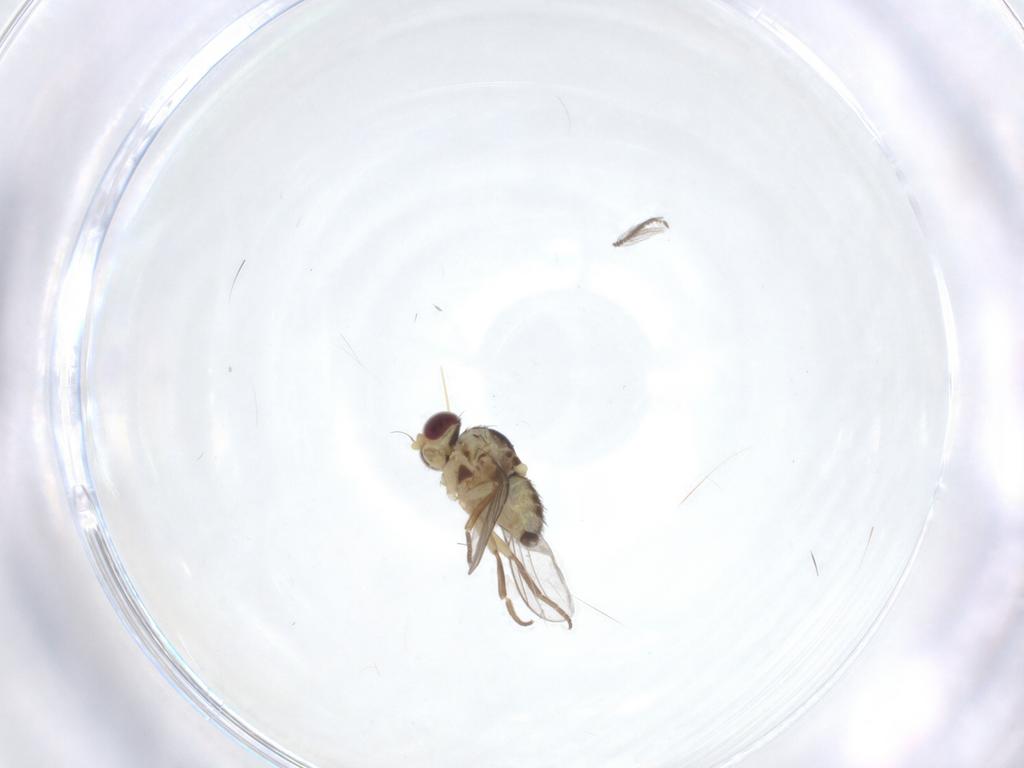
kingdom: Animalia
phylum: Arthropoda
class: Insecta
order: Diptera
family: Agromyzidae
